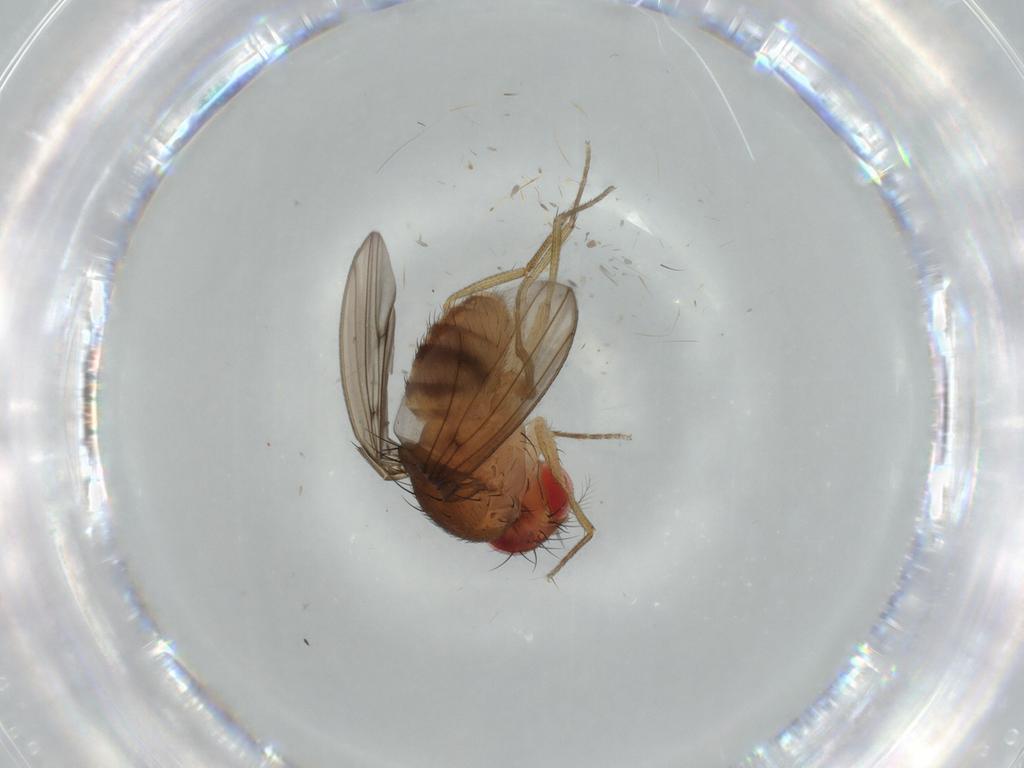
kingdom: Animalia
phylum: Arthropoda
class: Insecta
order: Diptera
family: Drosophilidae
